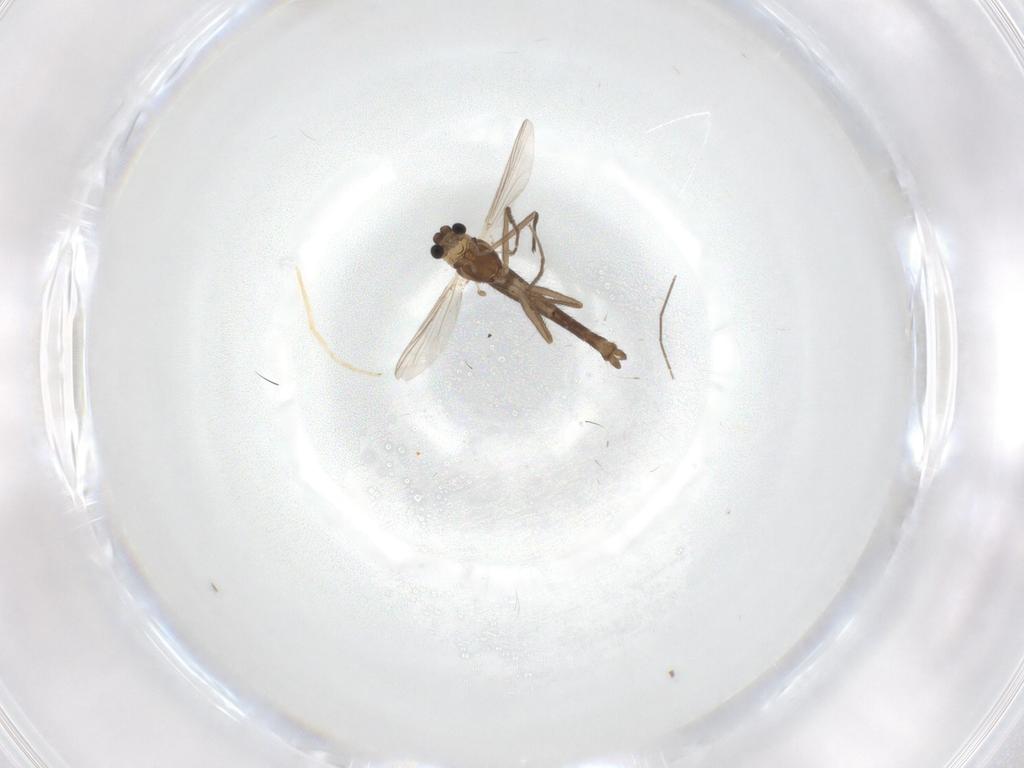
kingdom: Animalia
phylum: Arthropoda
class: Insecta
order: Diptera
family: Chironomidae
